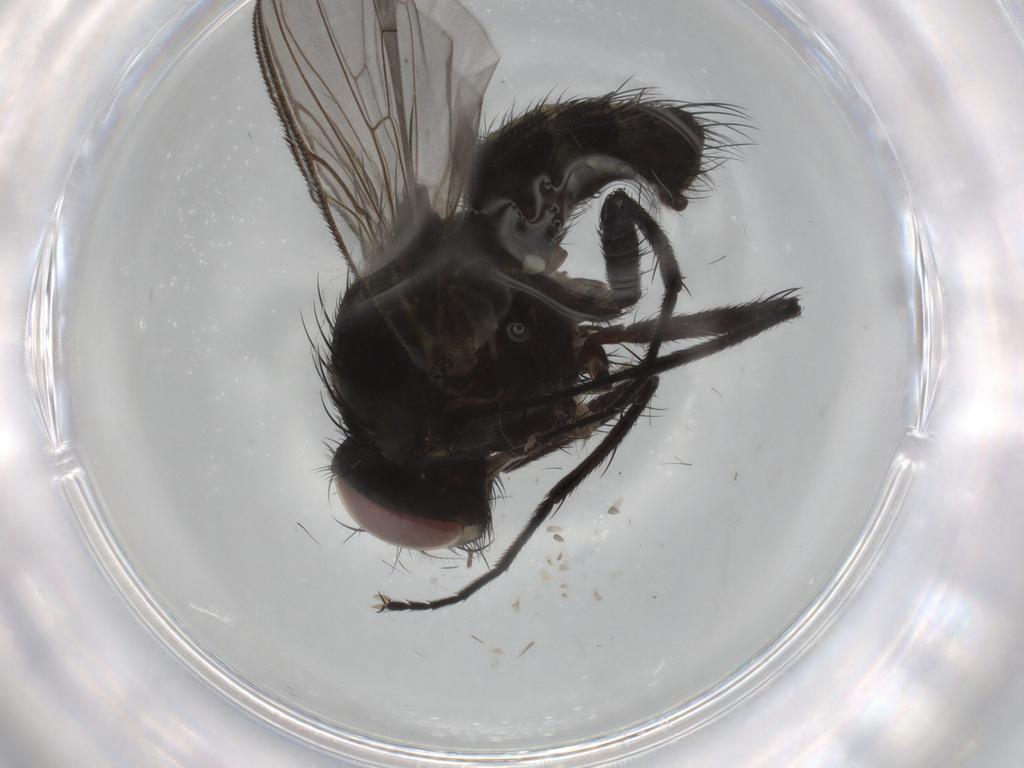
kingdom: Animalia
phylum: Arthropoda
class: Insecta
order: Diptera
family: Muscidae
